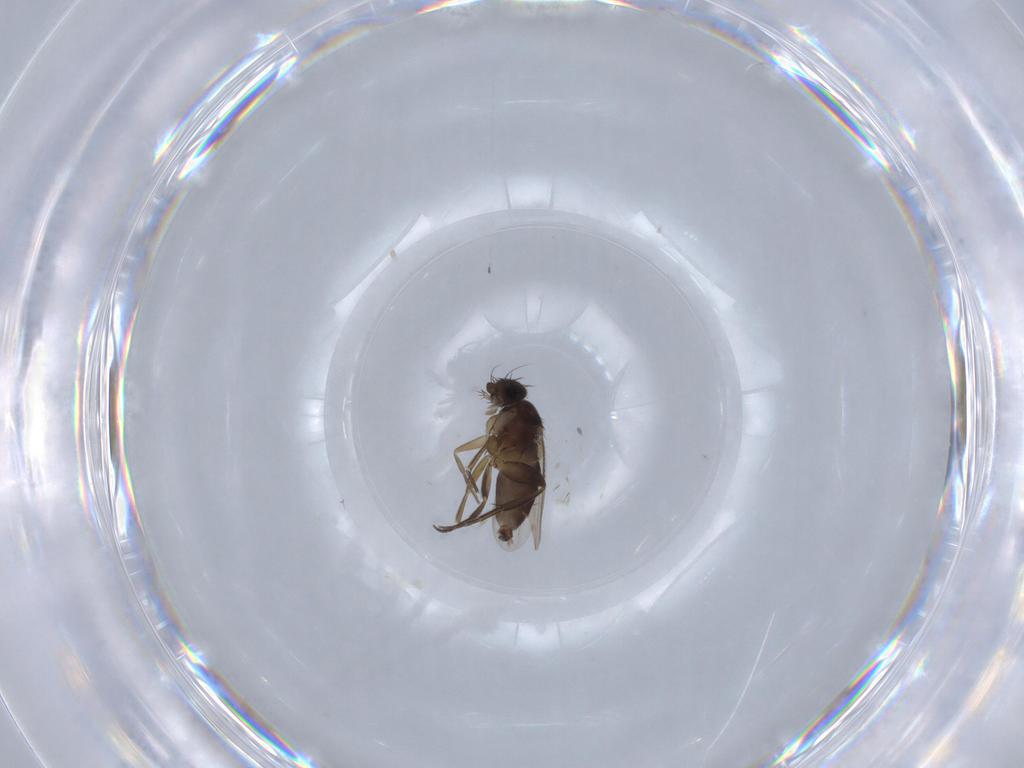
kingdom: Animalia
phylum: Arthropoda
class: Insecta
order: Diptera
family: Phoridae
